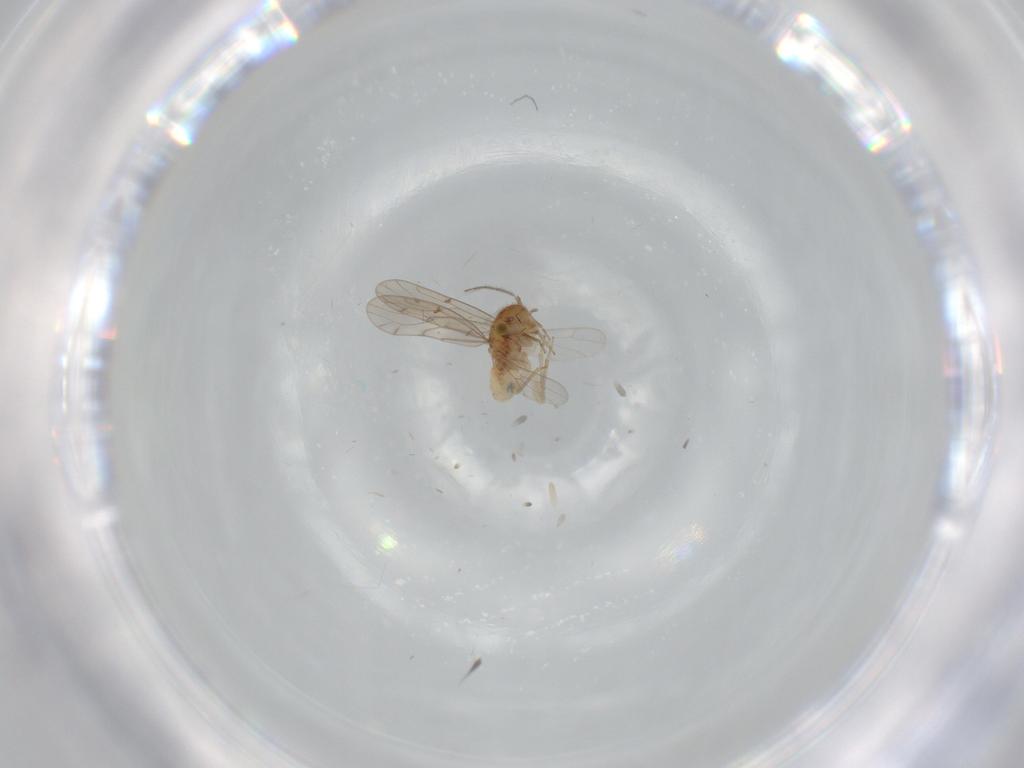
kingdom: Animalia
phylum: Arthropoda
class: Insecta
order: Psocodea
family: Ectopsocidae
